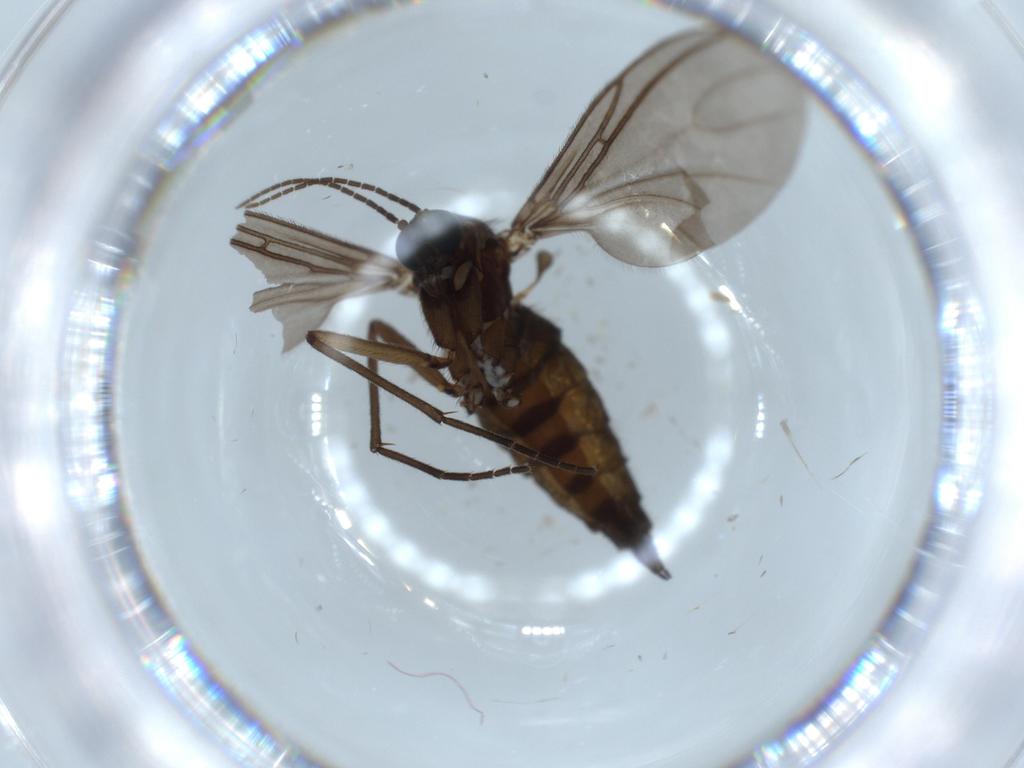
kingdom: Animalia
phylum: Arthropoda
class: Insecta
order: Diptera
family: Sciaridae
